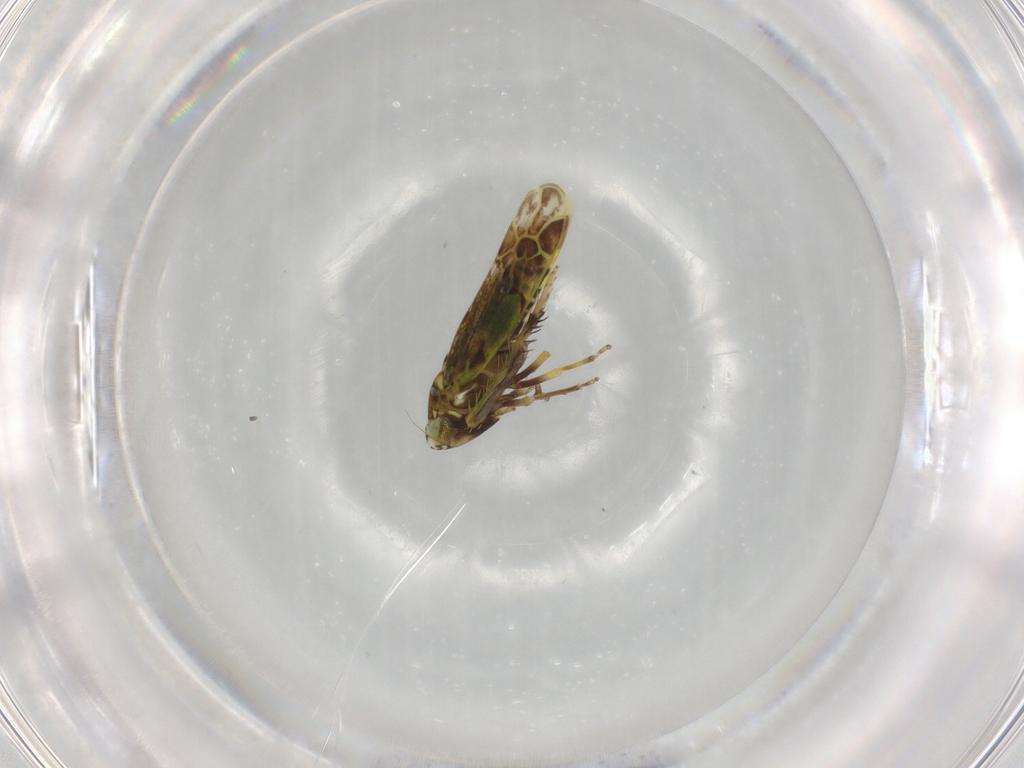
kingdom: Animalia
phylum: Arthropoda
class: Insecta
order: Hemiptera
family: Cicadellidae
